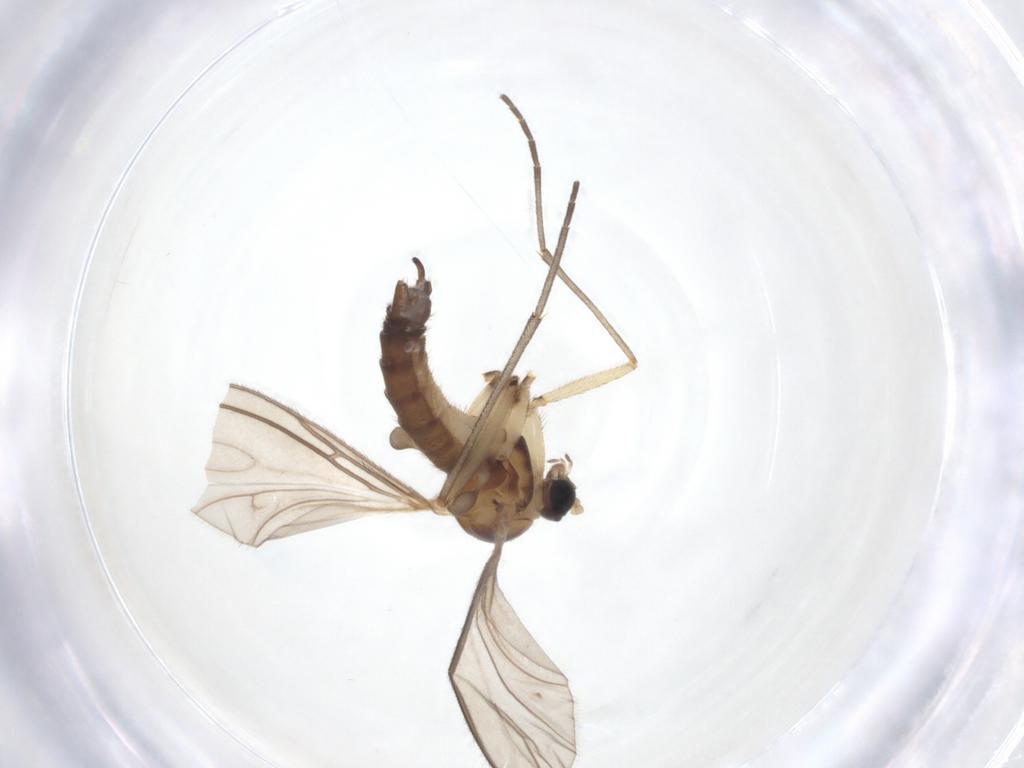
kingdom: Animalia
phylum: Arthropoda
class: Insecta
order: Diptera
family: Sciaridae
